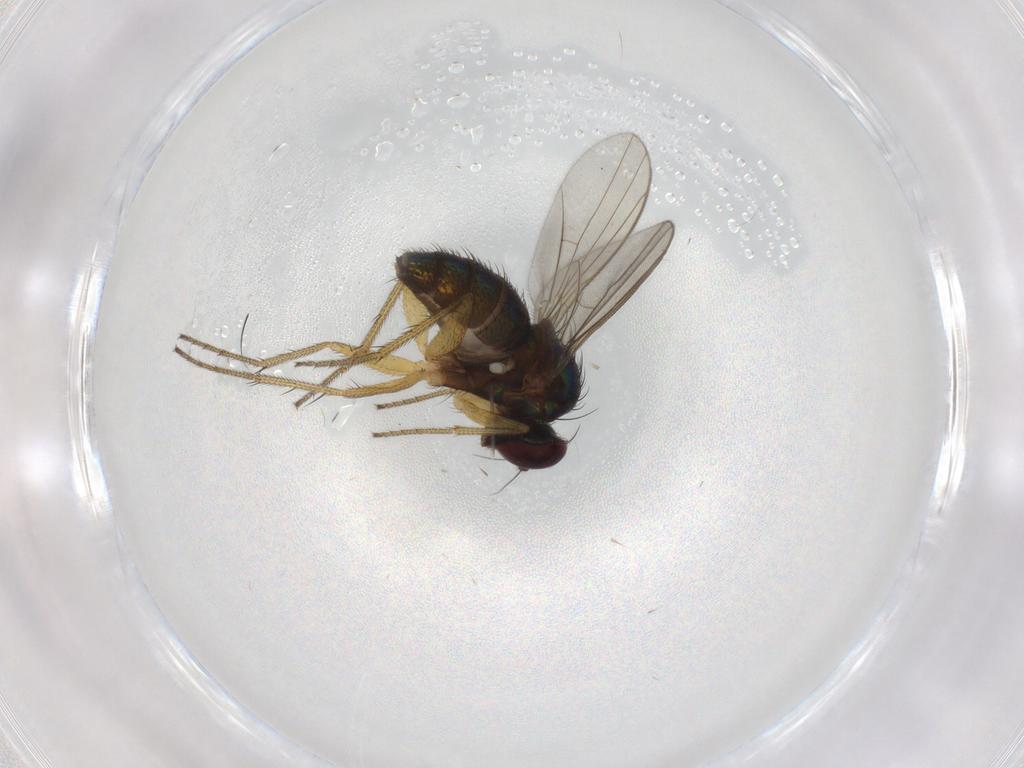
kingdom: Animalia
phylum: Arthropoda
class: Insecta
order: Diptera
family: Dolichopodidae
